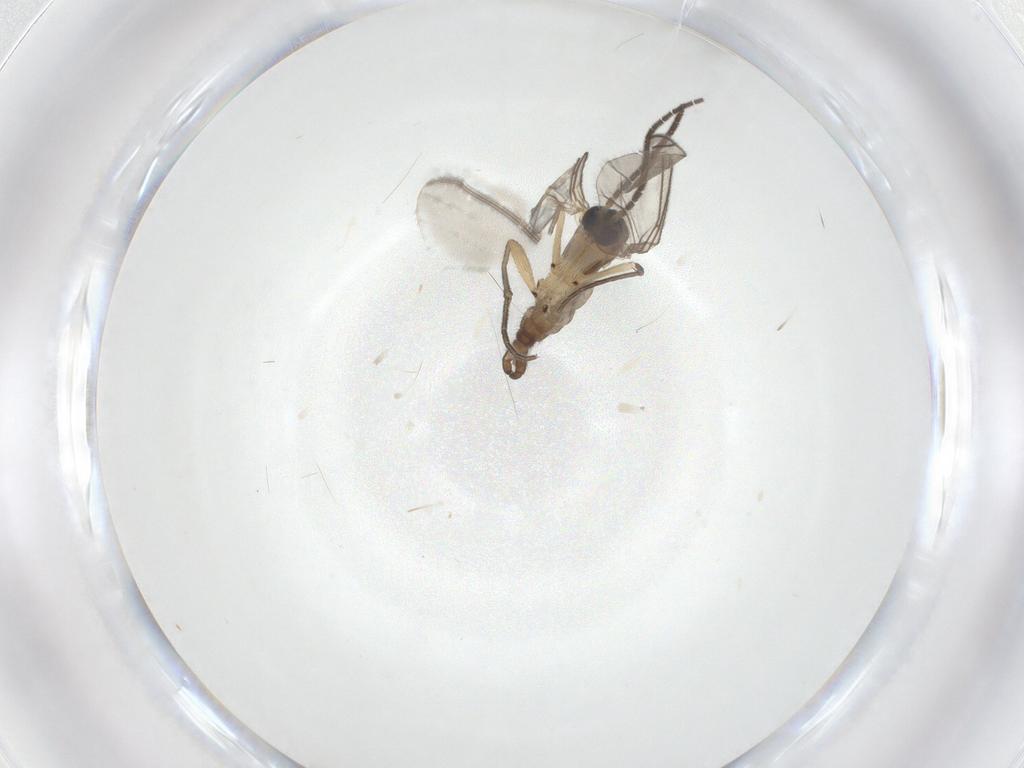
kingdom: Animalia
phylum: Arthropoda
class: Insecta
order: Diptera
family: Sciaridae
